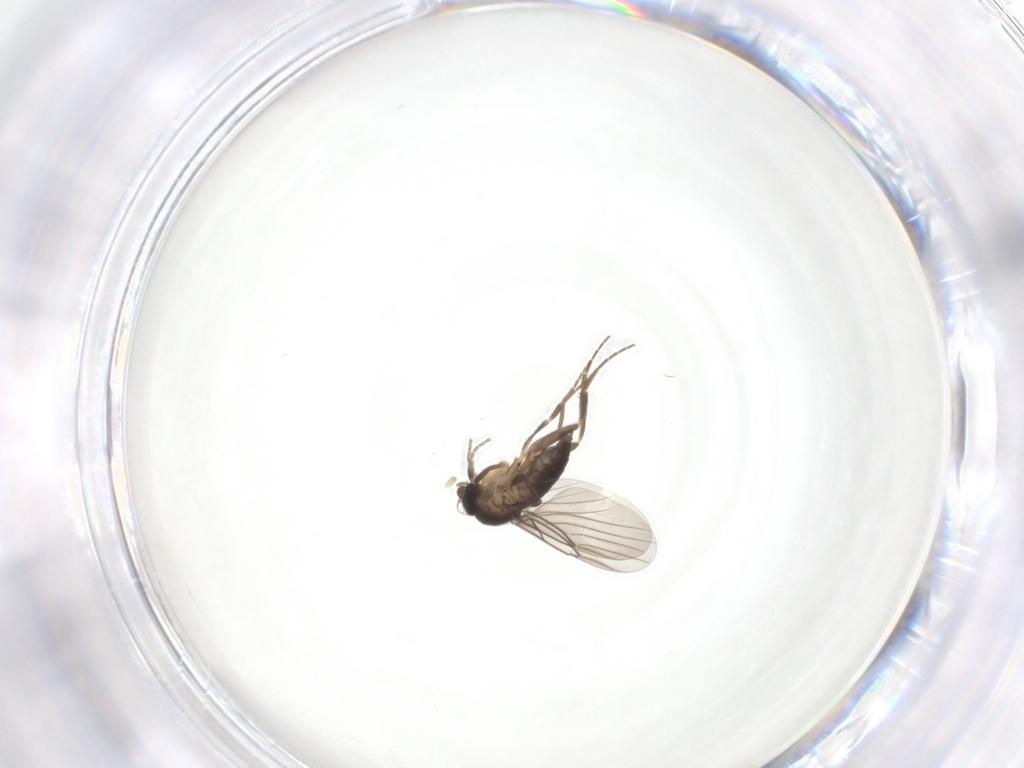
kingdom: Animalia
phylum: Arthropoda
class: Insecta
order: Diptera
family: Phoridae
